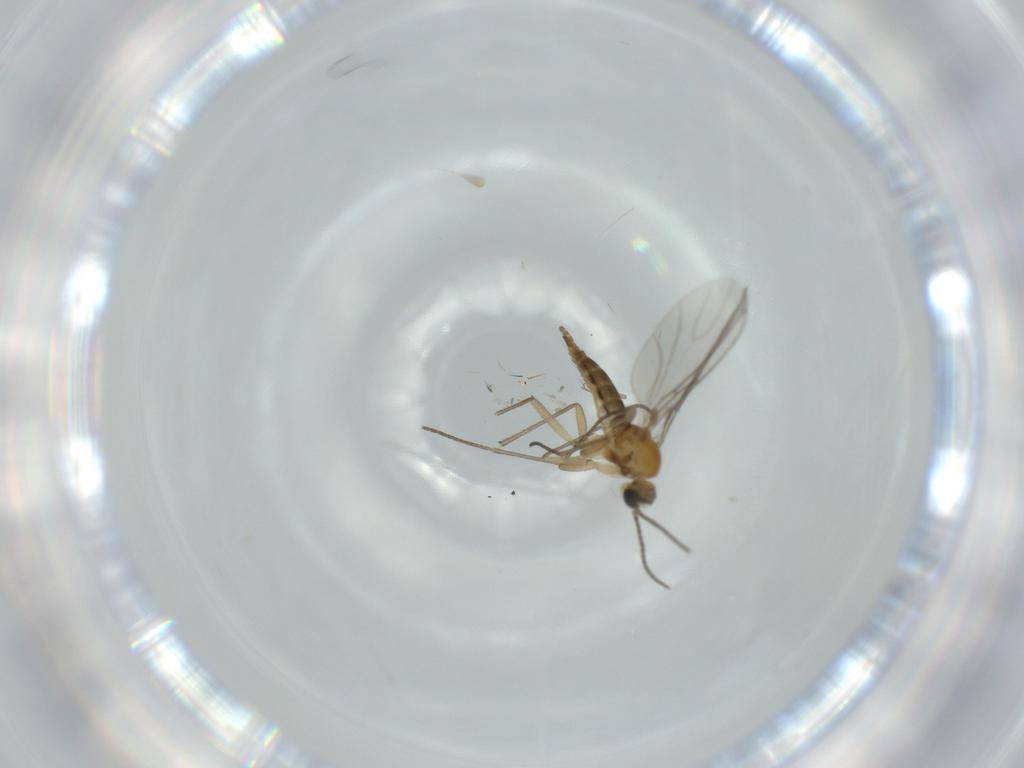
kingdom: Animalia
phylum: Arthropoda
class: Insecta
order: Diptera
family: Sciaridae
